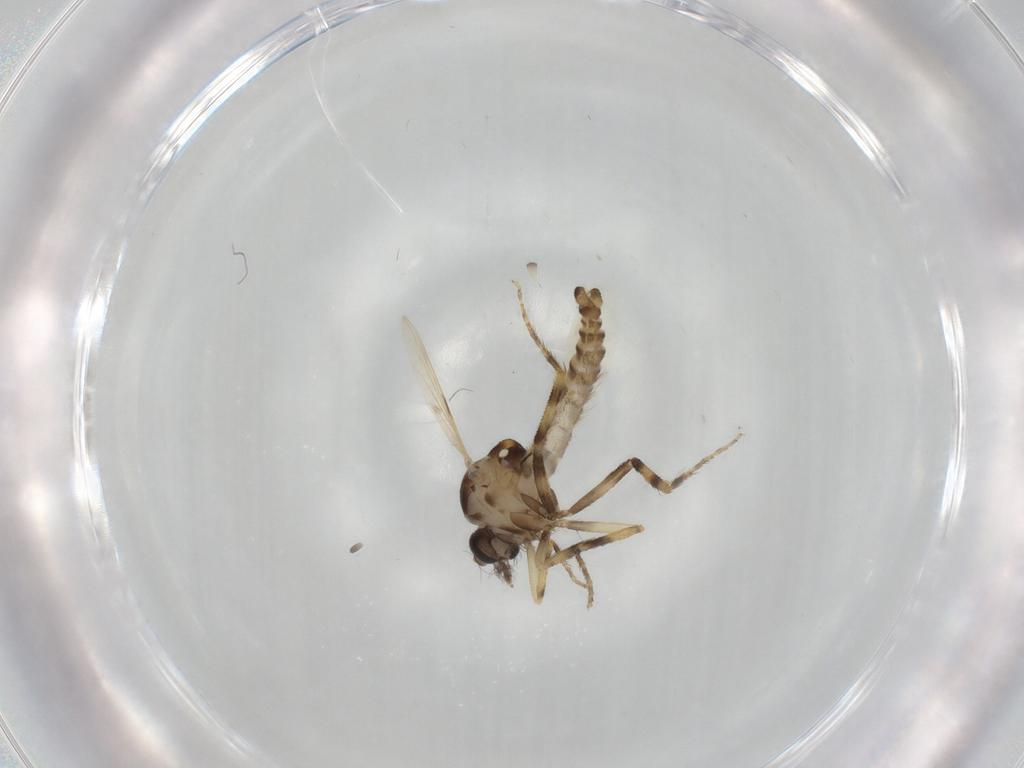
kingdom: Animalia
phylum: Arthropoda
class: Insecta
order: Diptera
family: Ceratopogonidae
